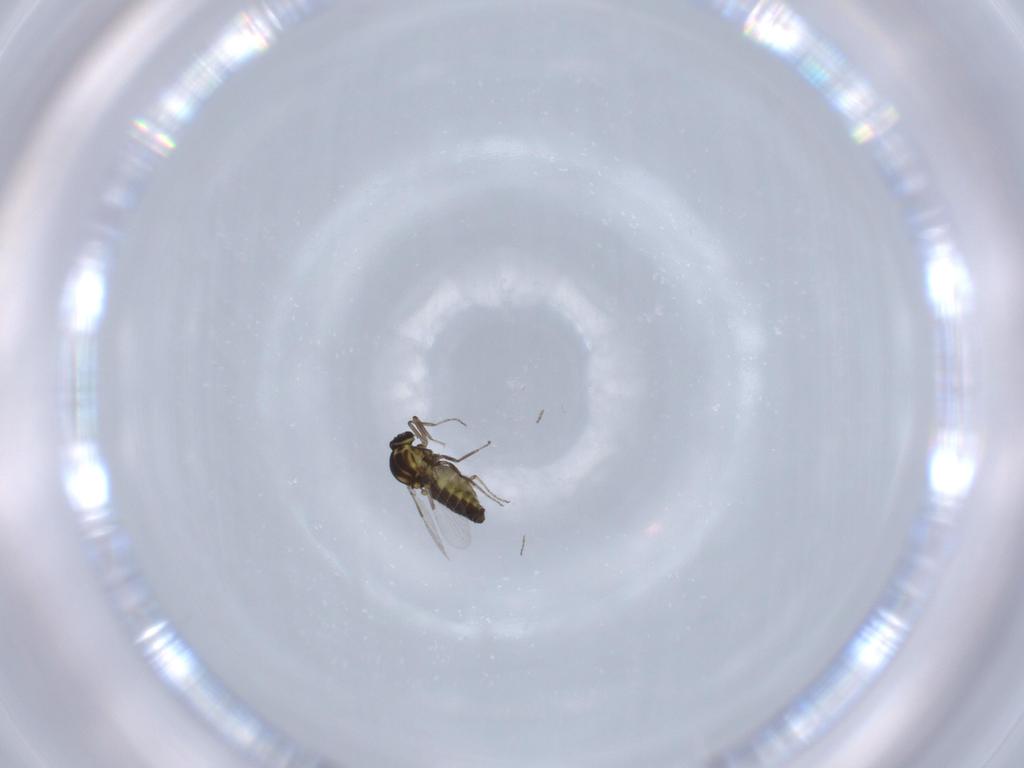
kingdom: Animalia
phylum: Arthropoda
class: Insecta
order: Diptera
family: Ceratopogonidae
